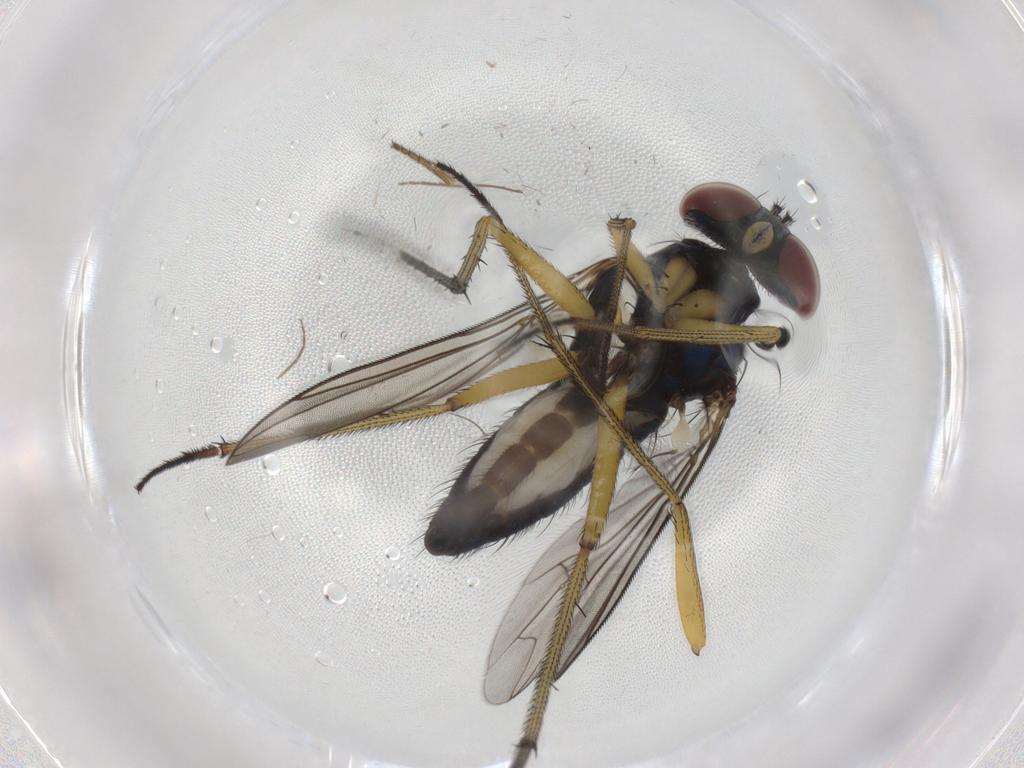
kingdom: Animalia
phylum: Arthropoda
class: Insecta
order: Diptera
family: Dolichopodidae
